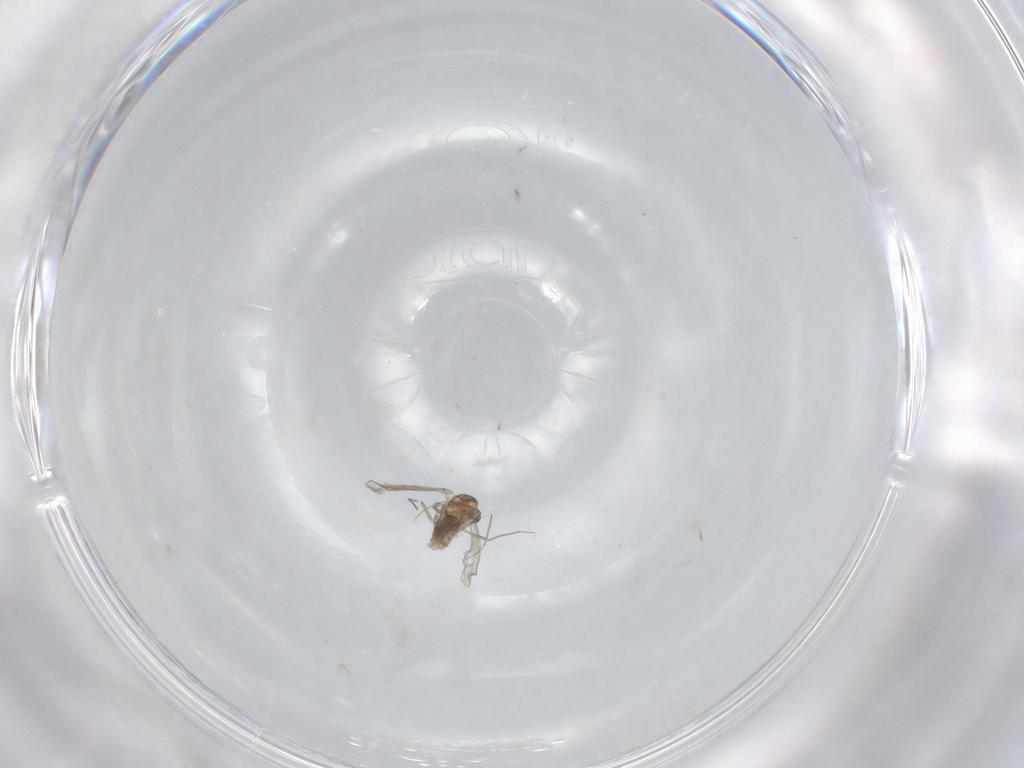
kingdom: Animalia
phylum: Arthropoda
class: Insecta
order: Diptera
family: Chironomidae
